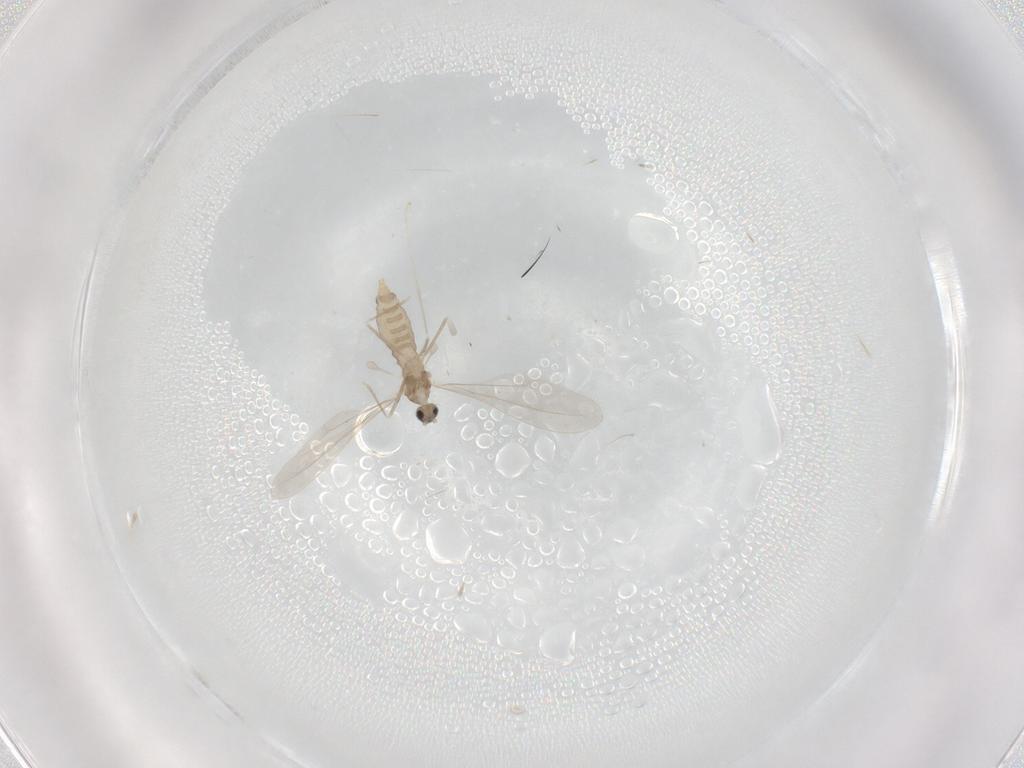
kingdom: Animalia
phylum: Arthropoda
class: Insecta
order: Diptera
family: Cecidomyiidae
